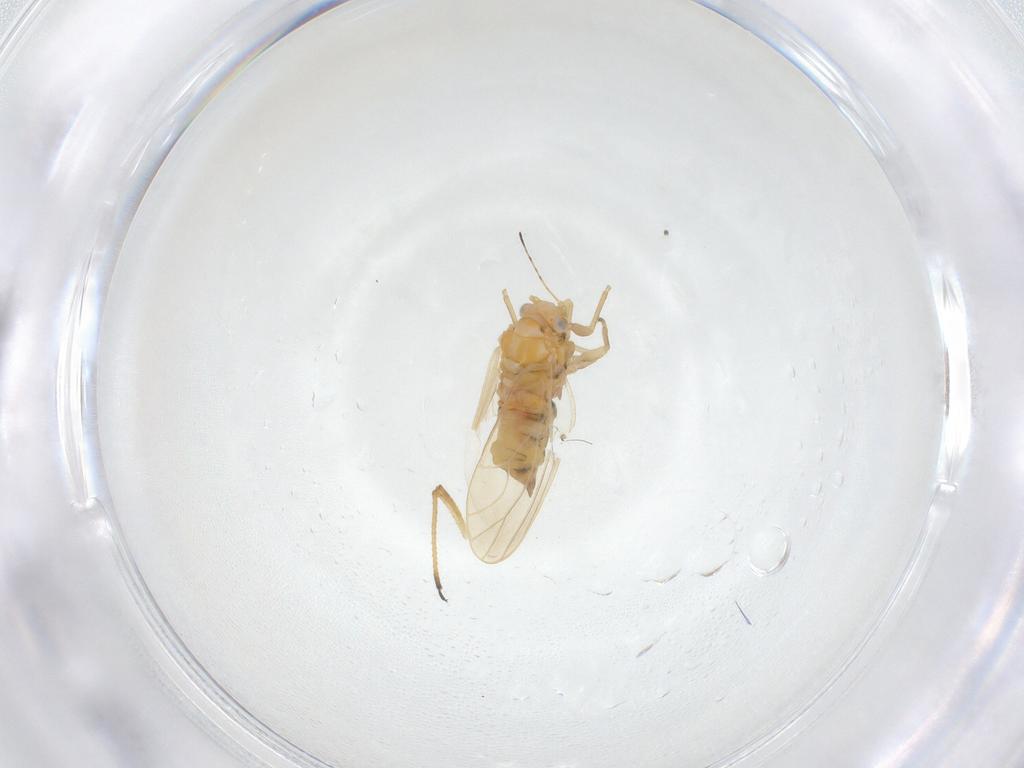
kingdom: Animalia
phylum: Arthropoda
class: Insecta
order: Hemiptera
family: Aphididae
